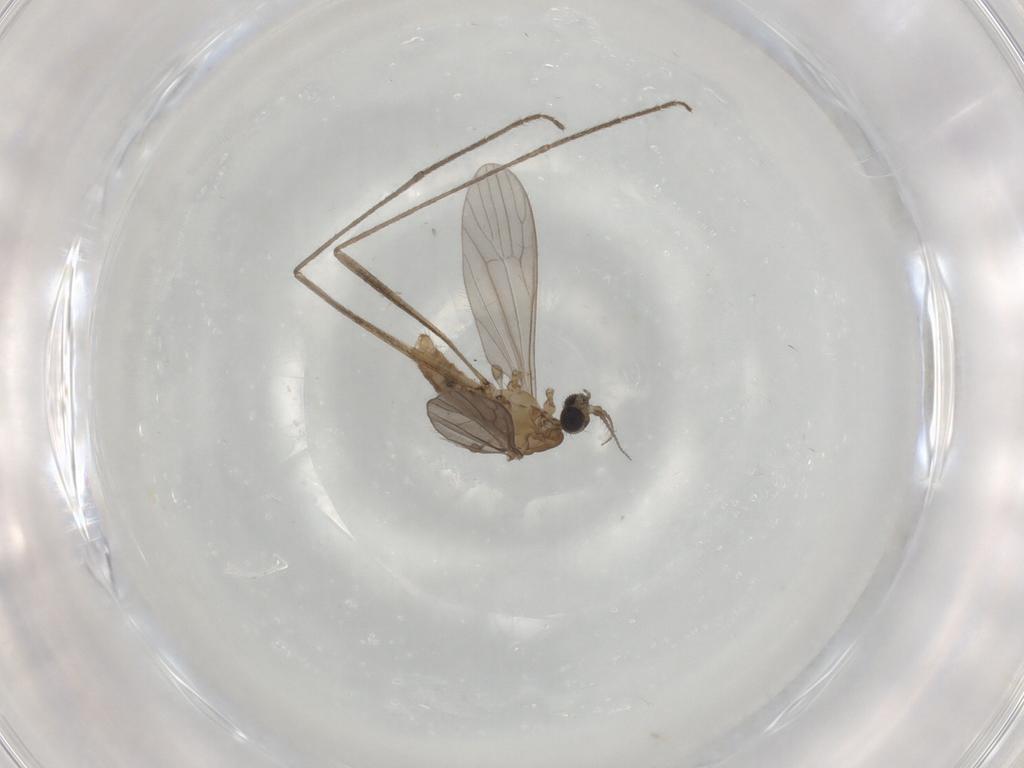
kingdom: Animalia
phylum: Arthropoda
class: Insecta
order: Diptera
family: Limoniidae
